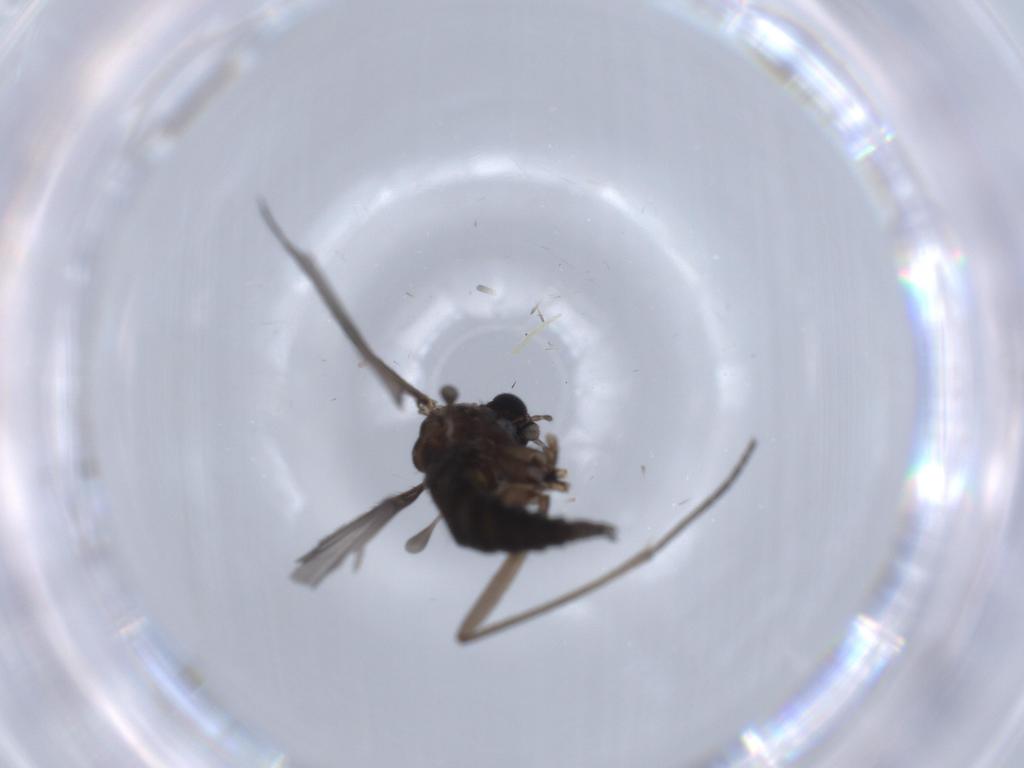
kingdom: Animalia
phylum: Arthropoda
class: Insecta
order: Diptera
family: Sciaridae
